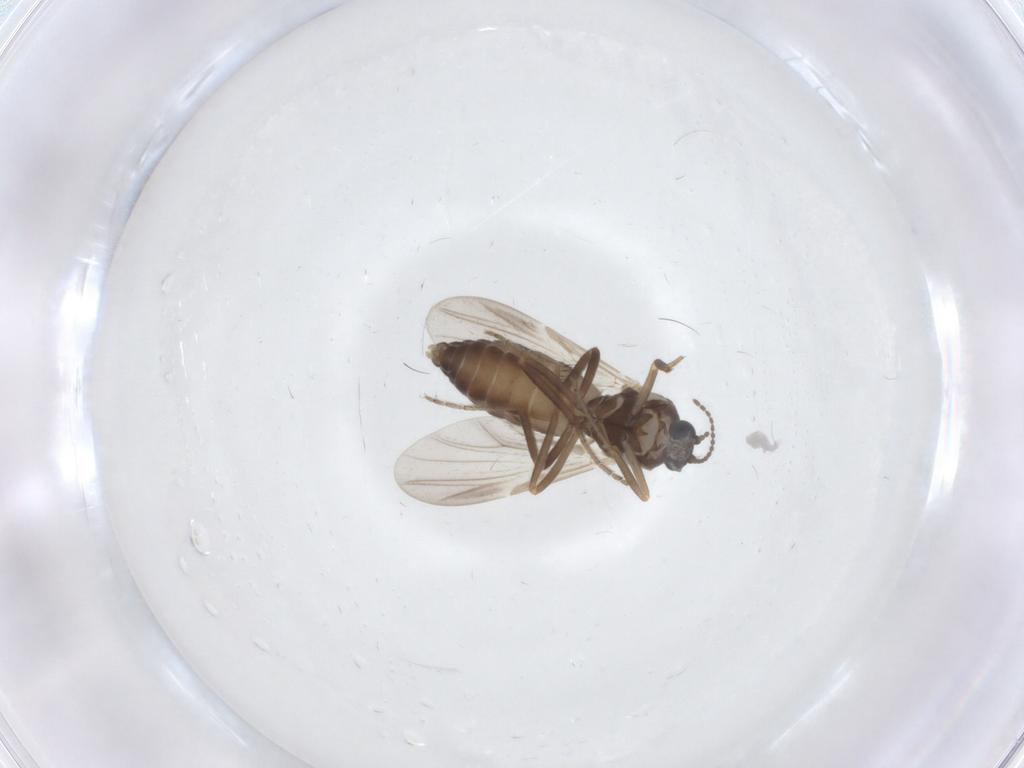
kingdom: Animalia
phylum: Arthropoda
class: Insecta
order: Diptera
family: Ceratopogonidae
